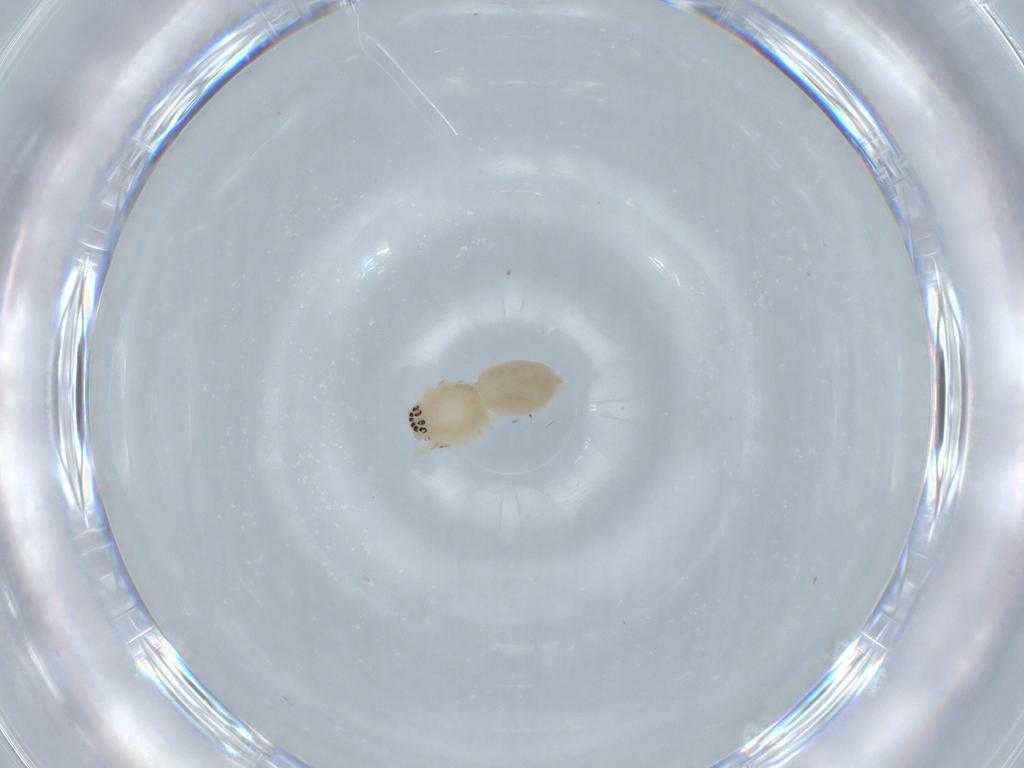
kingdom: Animalia
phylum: Arthropoda
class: Arachnida
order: Araneae
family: Anyphaenidae
